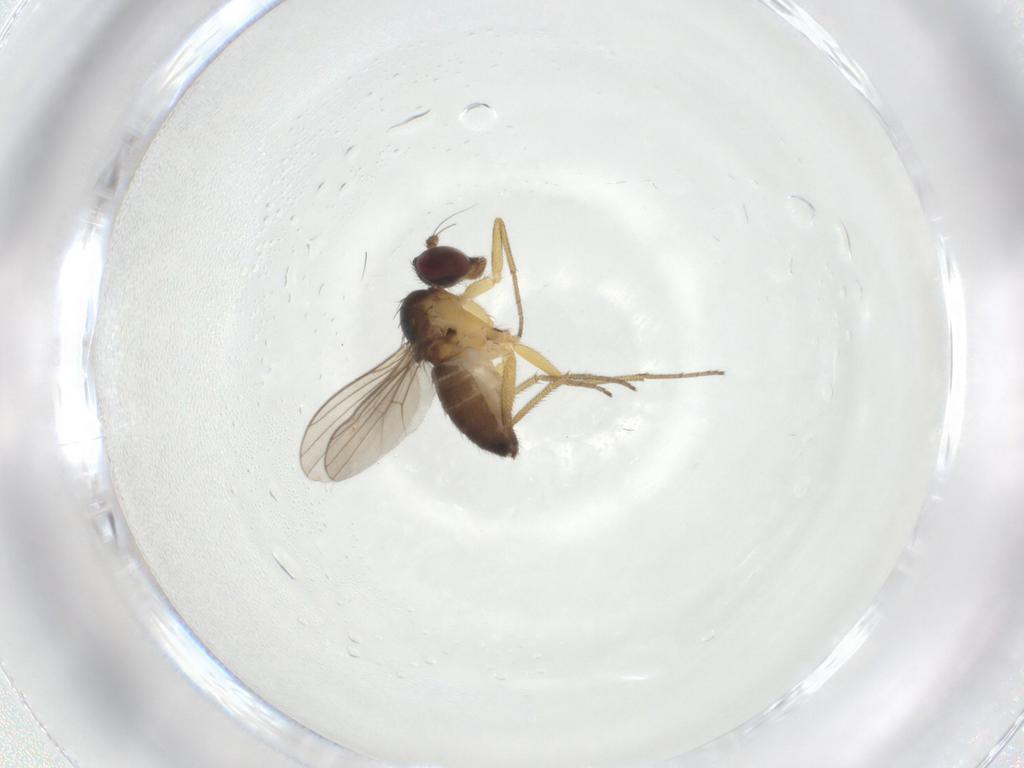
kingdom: Animalia
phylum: Arthropoda
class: Insecta
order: Diptera
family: Dolichopodidae
